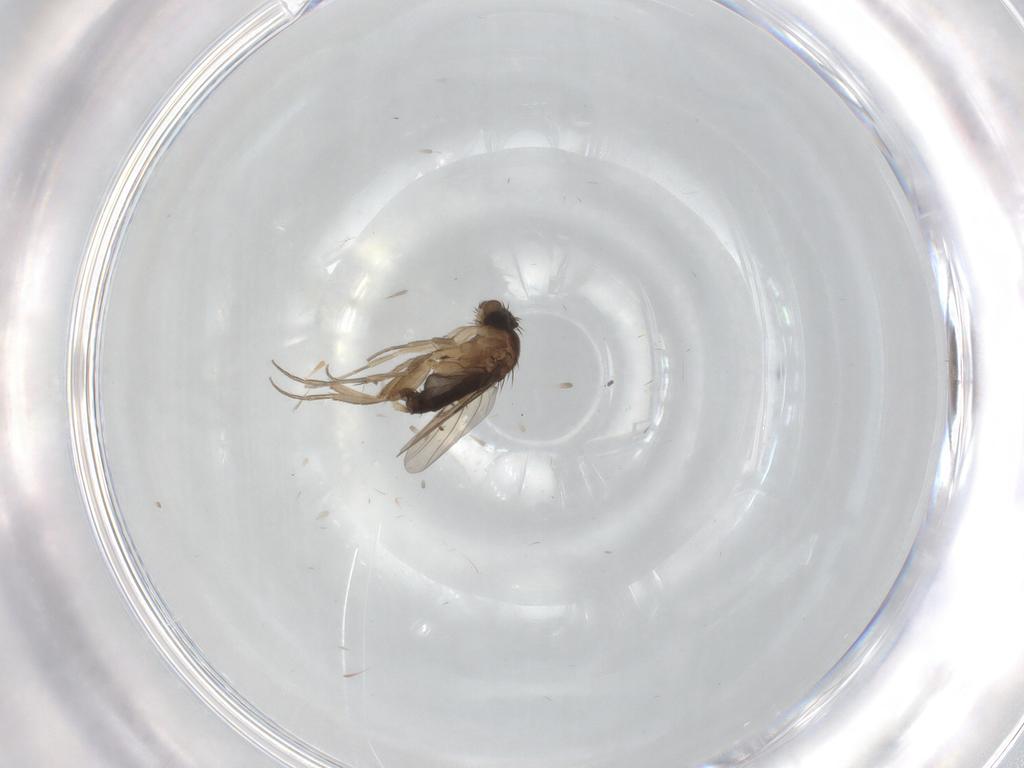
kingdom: Animalia
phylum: Arthropoda
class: Insecta
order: Diptera
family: Phoridae
